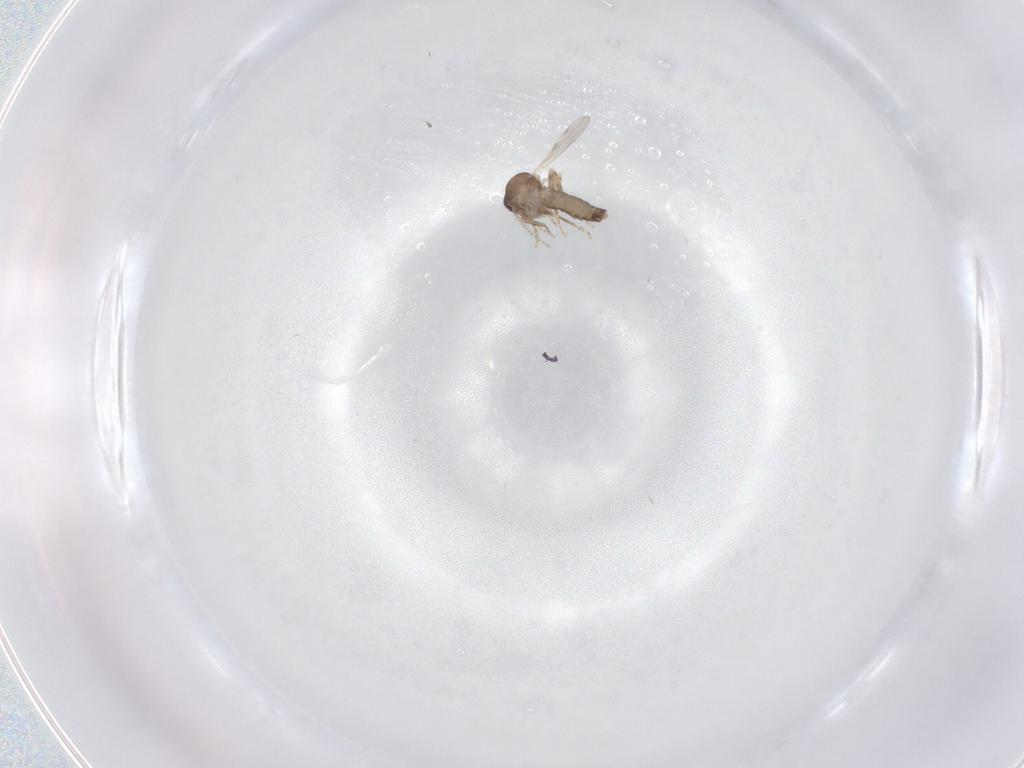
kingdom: Animalia
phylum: Arthropoda
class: Insecta
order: Diptera
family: Ceratopogonidae
